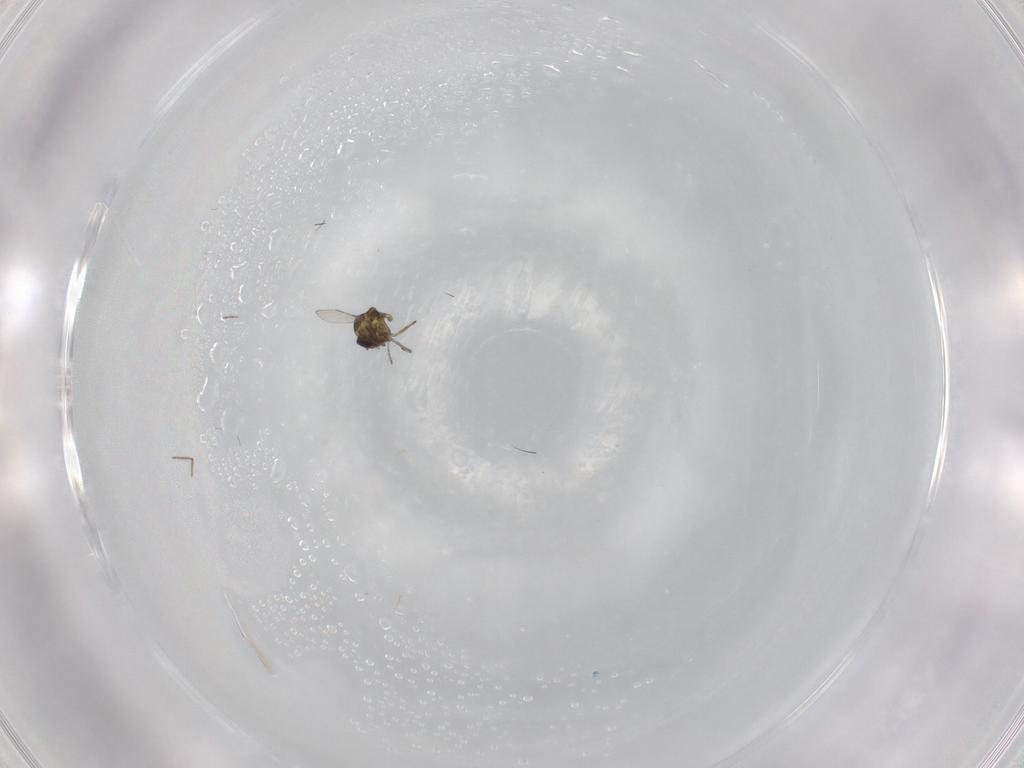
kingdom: Animalia
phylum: Arthropoda
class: Insecta
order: Diptera
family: Ceratopogonidae
